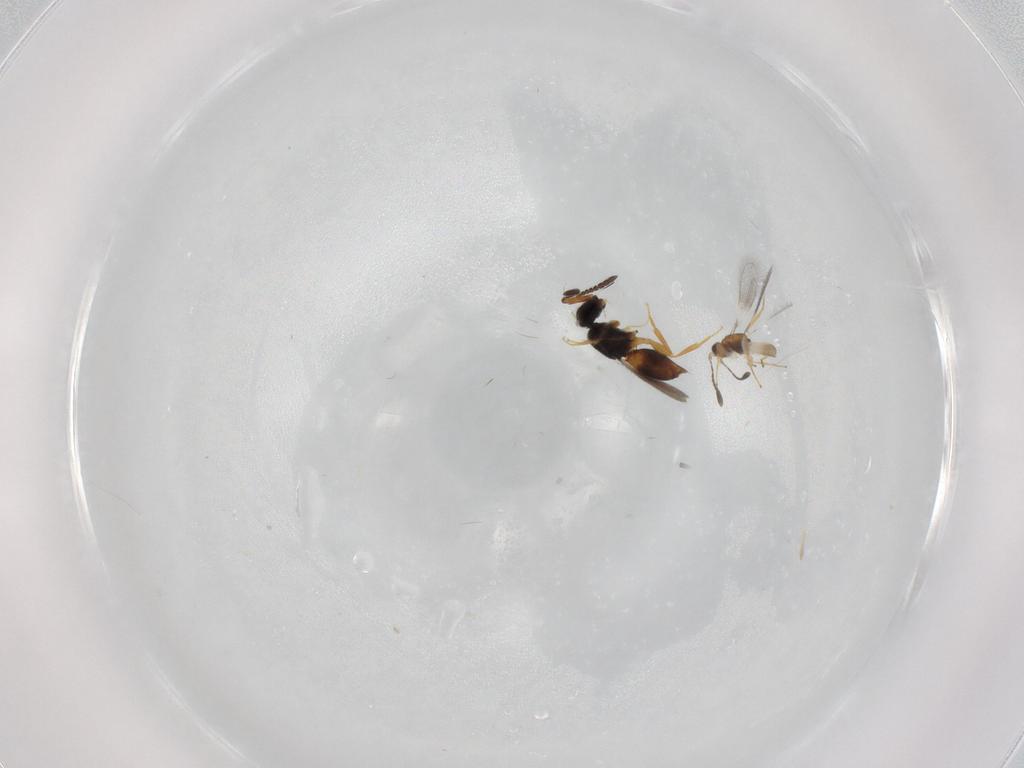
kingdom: Animalia
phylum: Arthropoda
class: Insecta
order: Hymenoptera
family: Mymaridae
